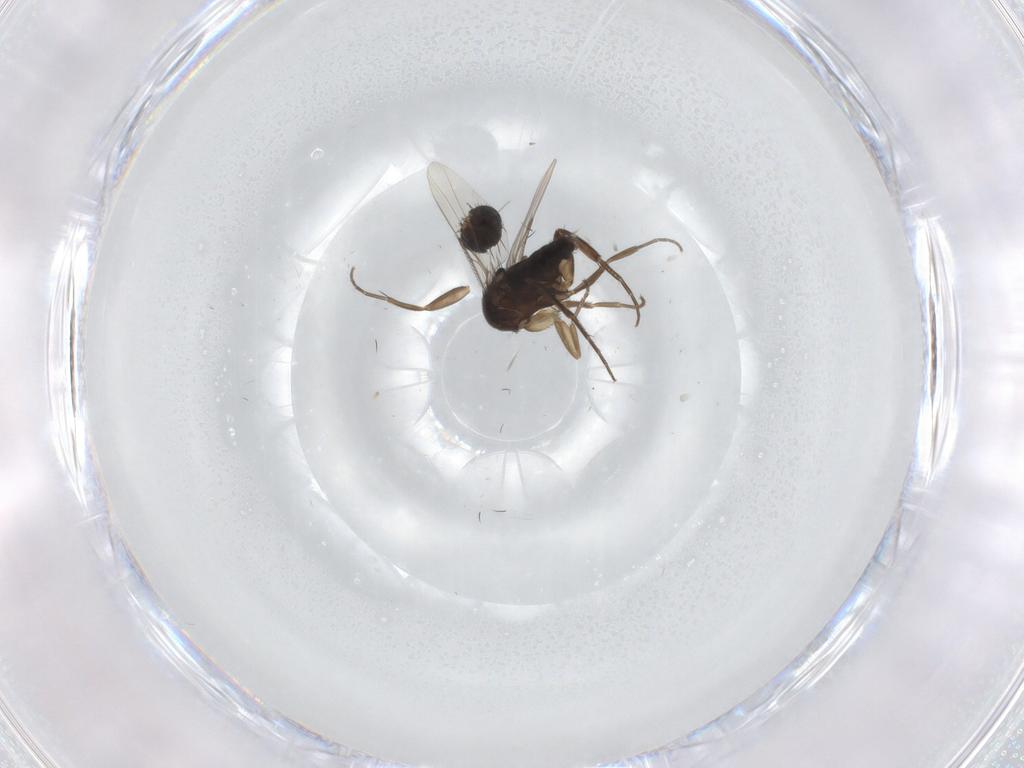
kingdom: Animalia
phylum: Arthropoda
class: Insecta
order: Diptera
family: Phoridae
